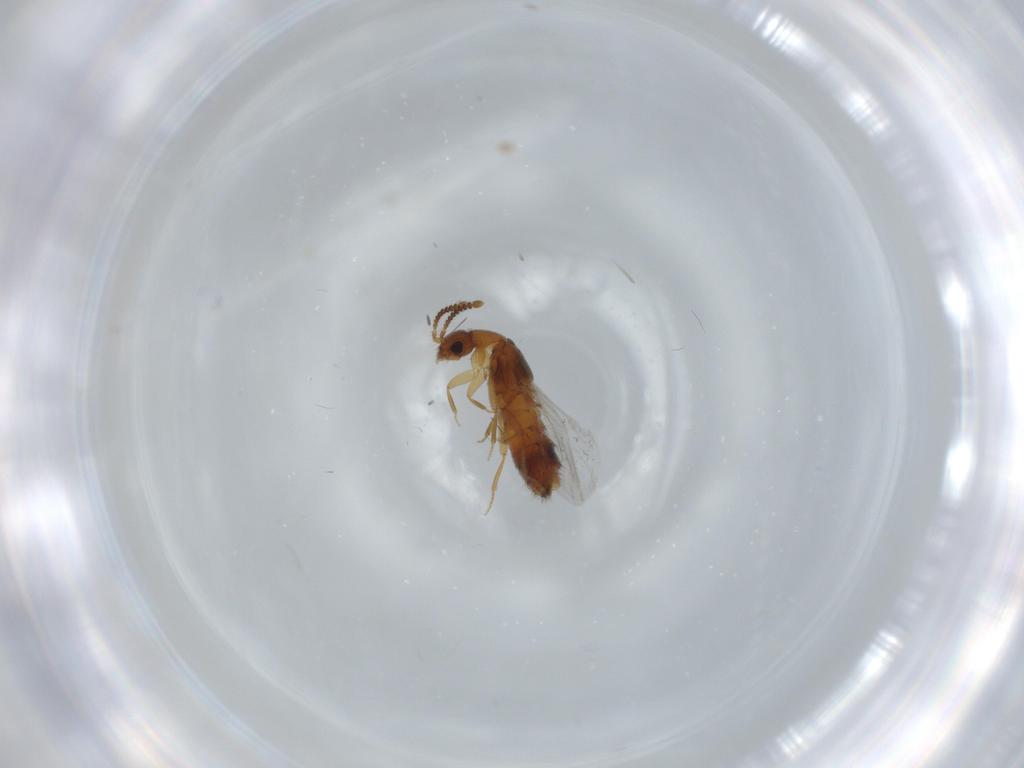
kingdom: Animalia
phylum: Arthropoda
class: Insecta
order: Coleoptera
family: Staphylinidae
